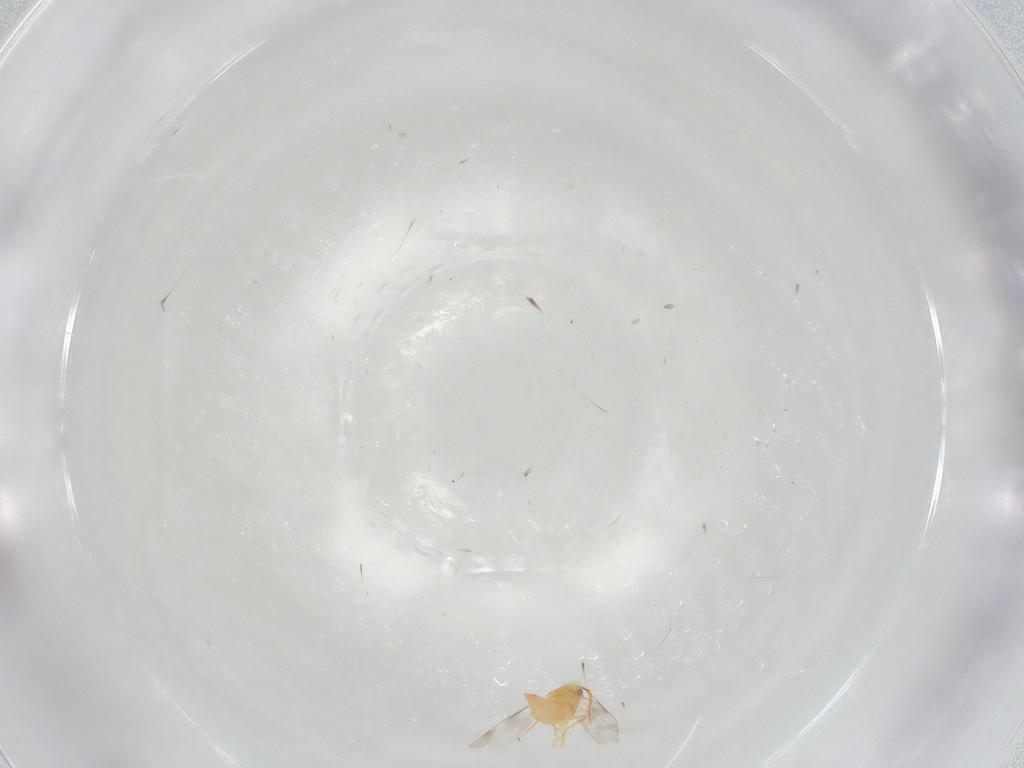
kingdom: Animalia
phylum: Arthropoda
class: Insecta
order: Hemiptera
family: Aleyrodidae
